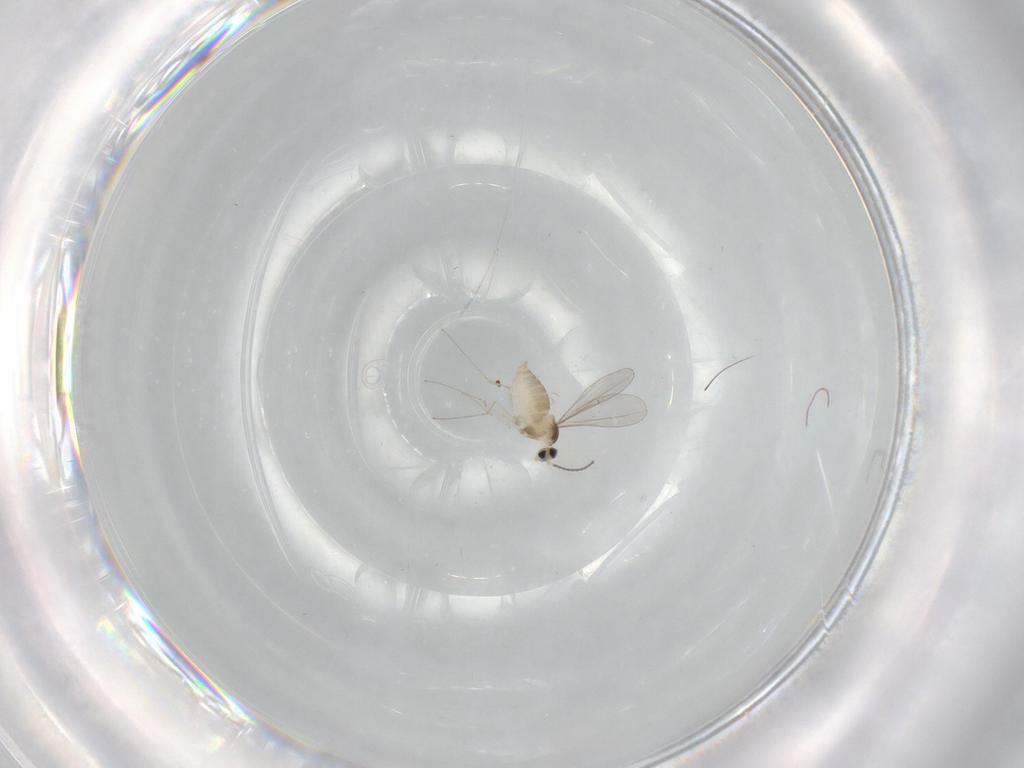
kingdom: Animalia
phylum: Arthropoda
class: Insecta
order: Diptera
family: Cecidomyiidae
